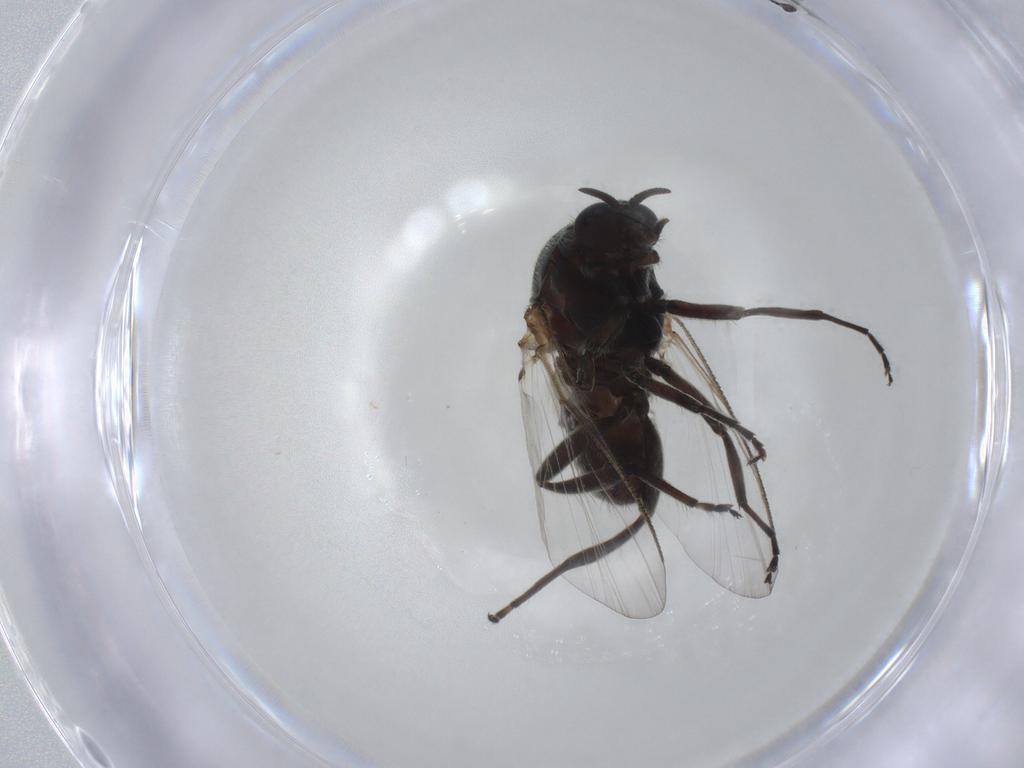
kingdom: Animalia
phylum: Arthropoda
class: Insecta
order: Diptera
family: Ceratopogonidae
